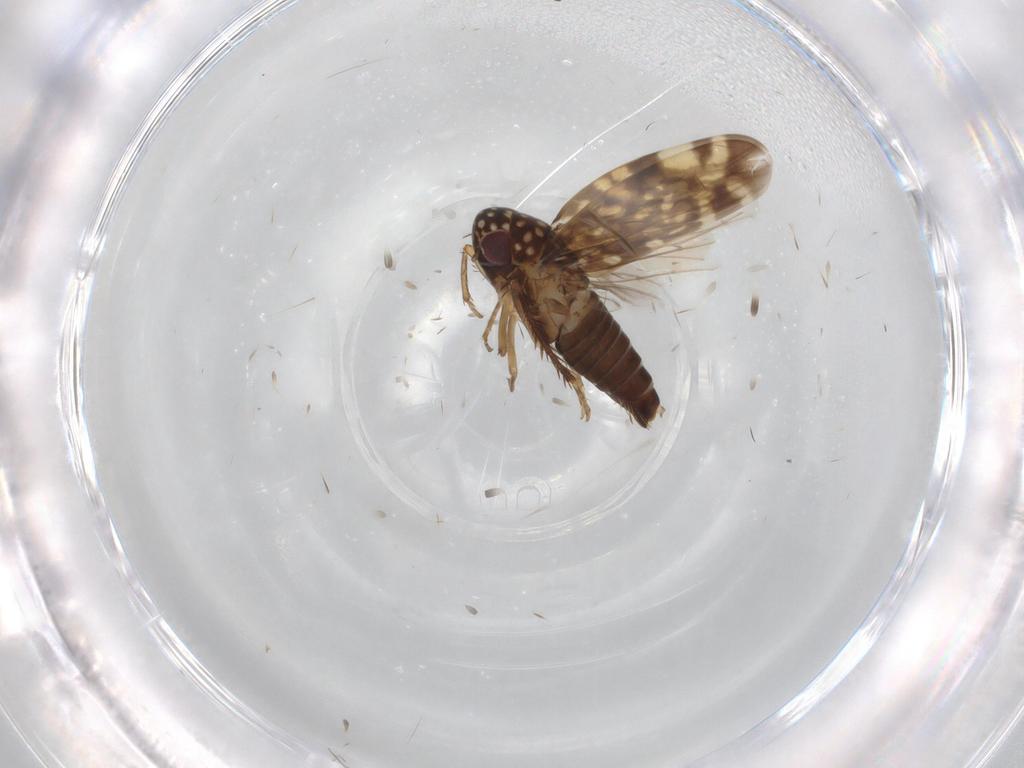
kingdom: Animalia
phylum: Arthropoda
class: Insecta
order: Hemiptera
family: Cicadellidae
